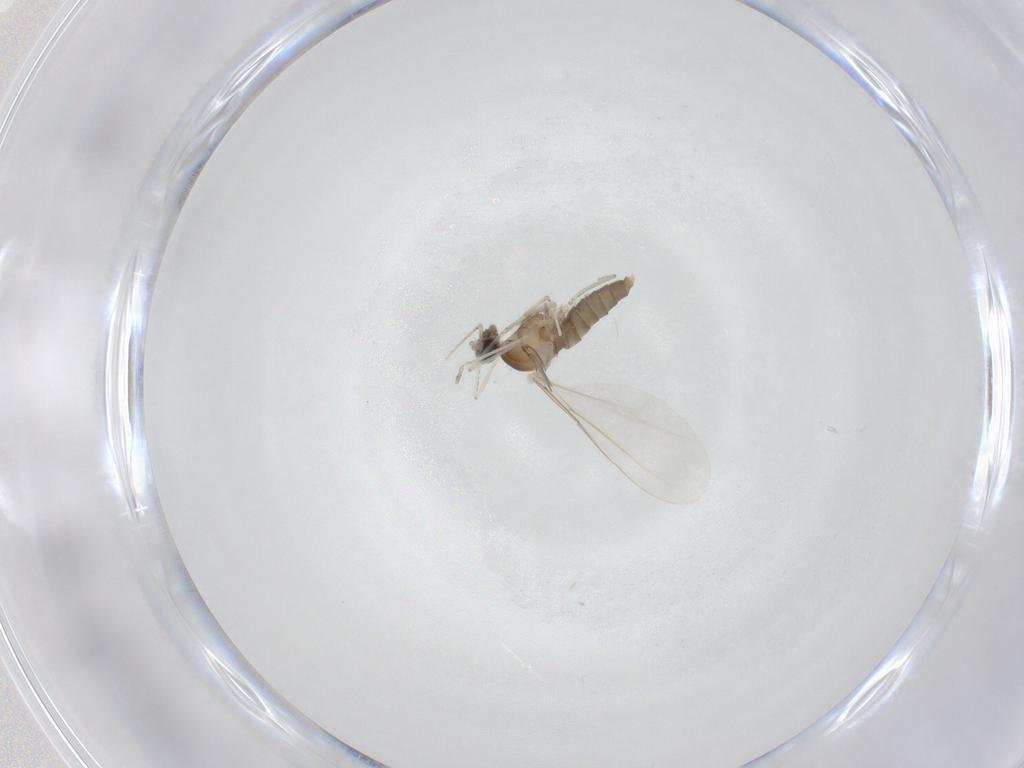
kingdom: Animalia
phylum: Arthropoda
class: Insecta
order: Diptera
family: Cecidomyiidae
